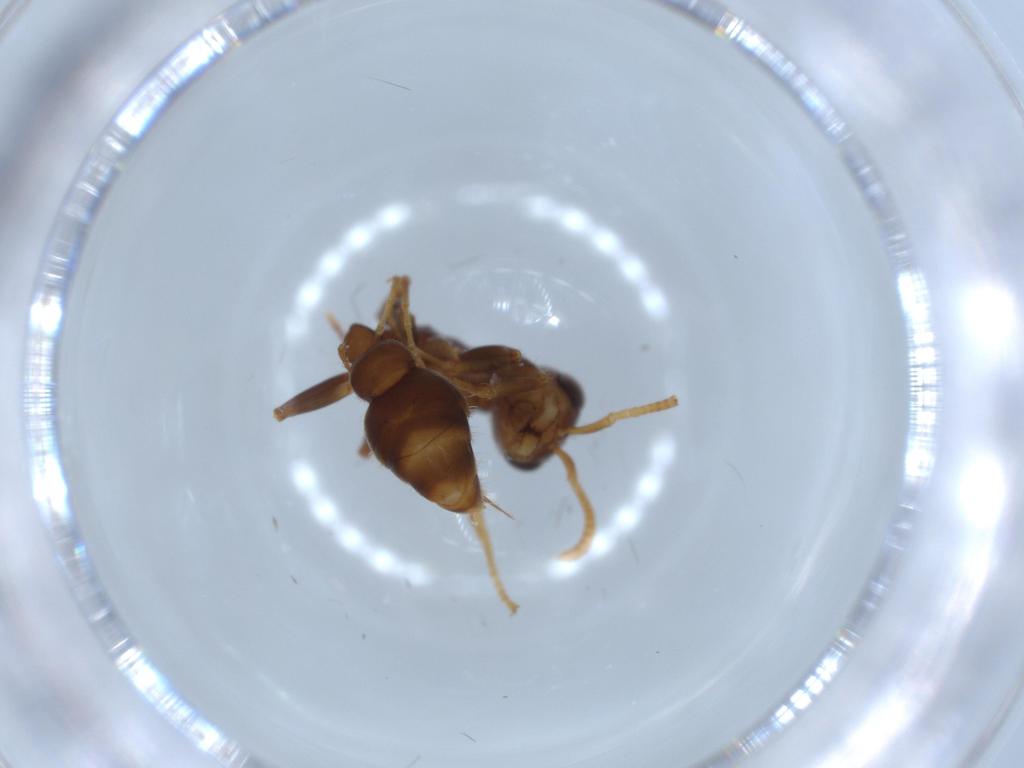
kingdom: Animalia
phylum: Arthropoda
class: Insecta
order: Hymenoptera
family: Formicidae
